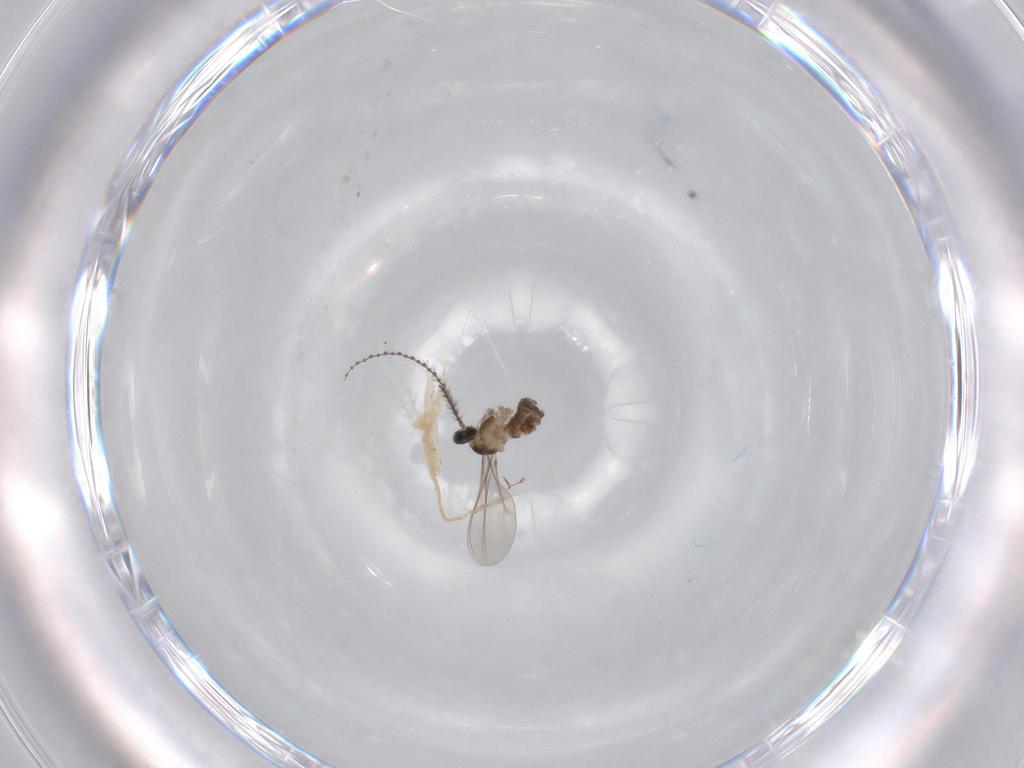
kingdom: Animalia
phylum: Arthropoda
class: Insecta
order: Diptera
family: Cecidomyiidae
